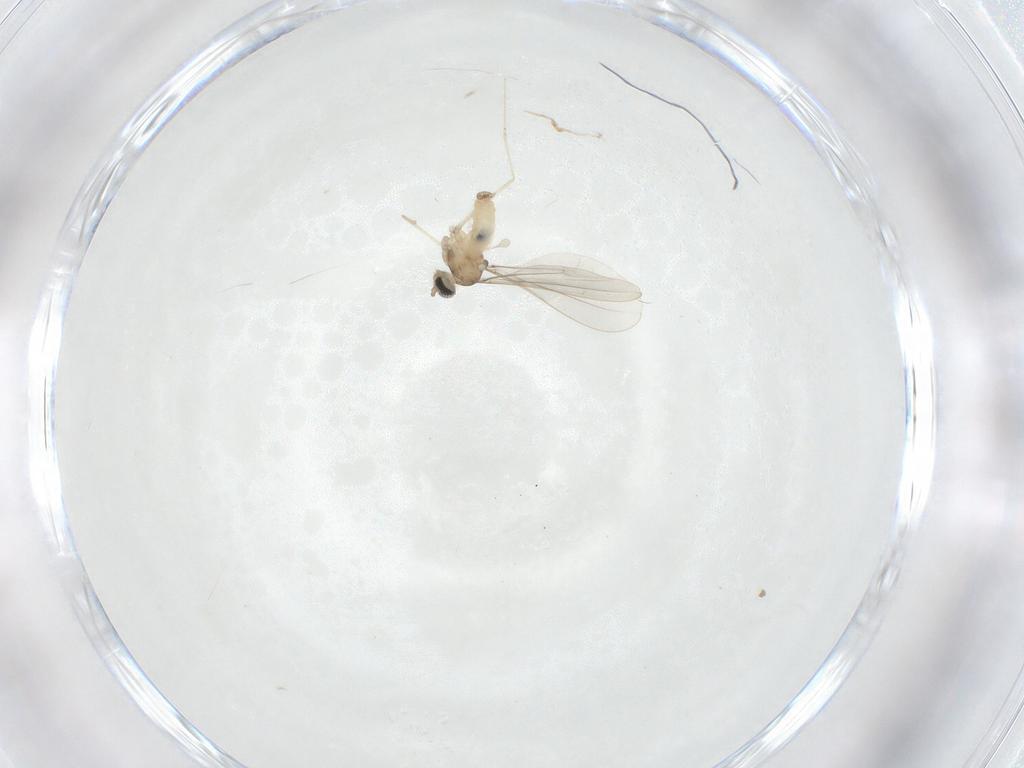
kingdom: Animalia
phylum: Arthropoda
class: Insecta
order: Diptera
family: Cecidomyiidae
